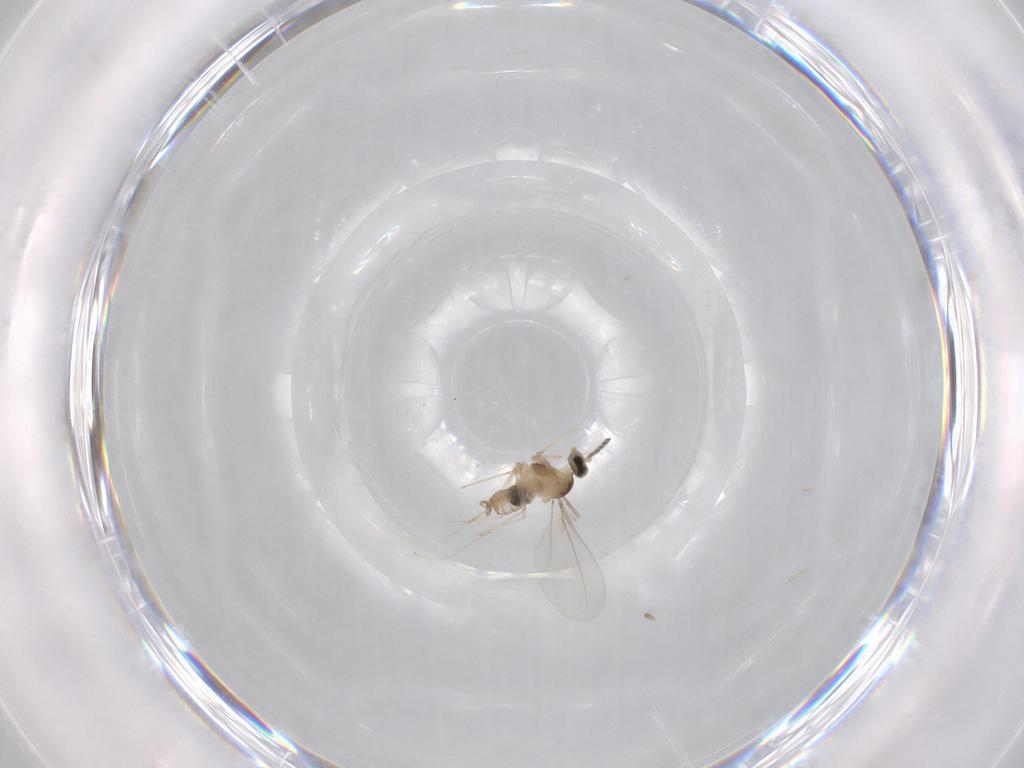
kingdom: Animalia
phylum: Arthropoda
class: Insecta
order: Diptera
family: Cecidomyiidae
